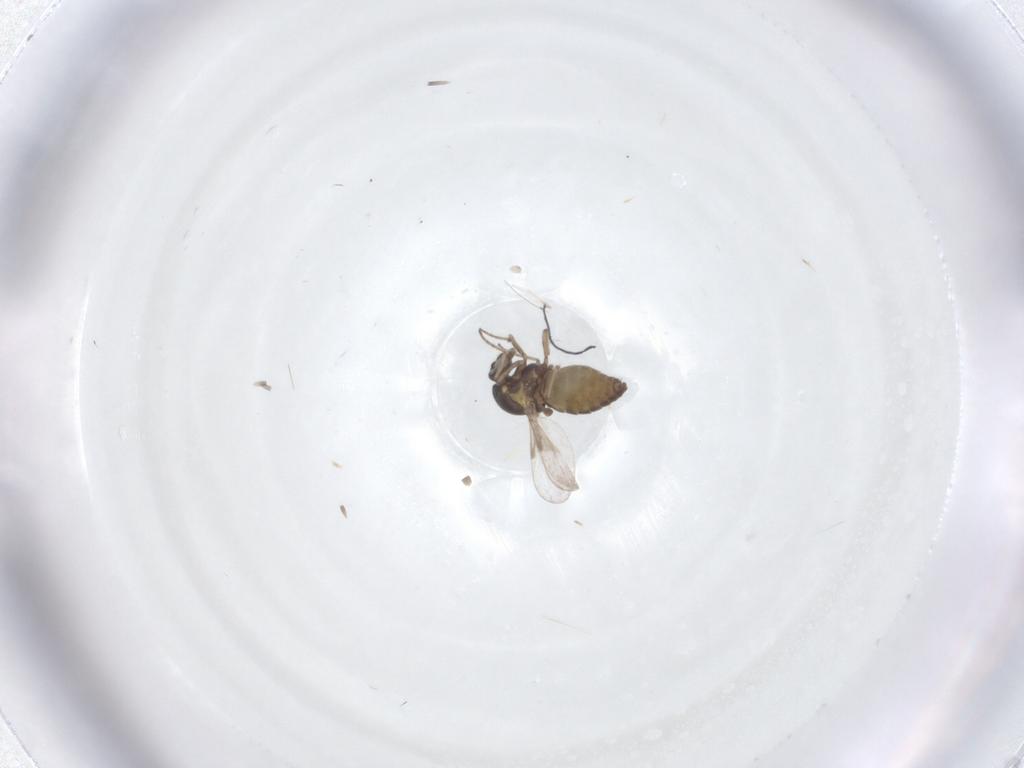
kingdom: Animalia
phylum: Arthropoda
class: Insecta
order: Diptera
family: Ceratopogonidae
